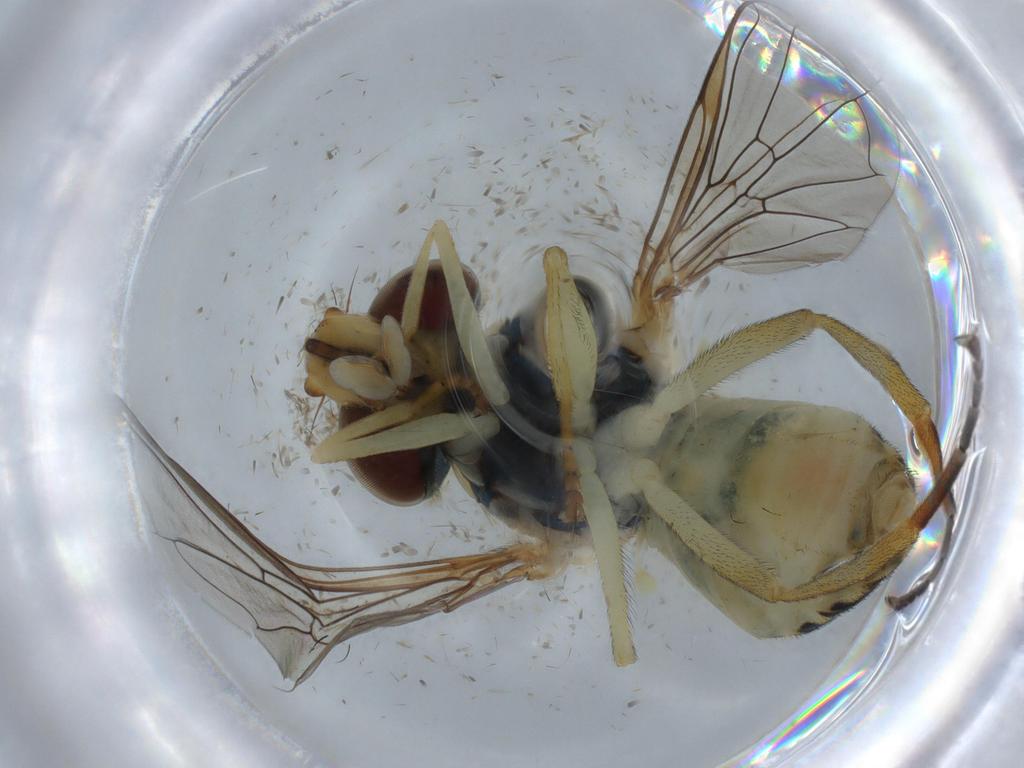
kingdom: Animalia
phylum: Arthropoda
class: Insecta
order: Diptera
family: Syrphidae
